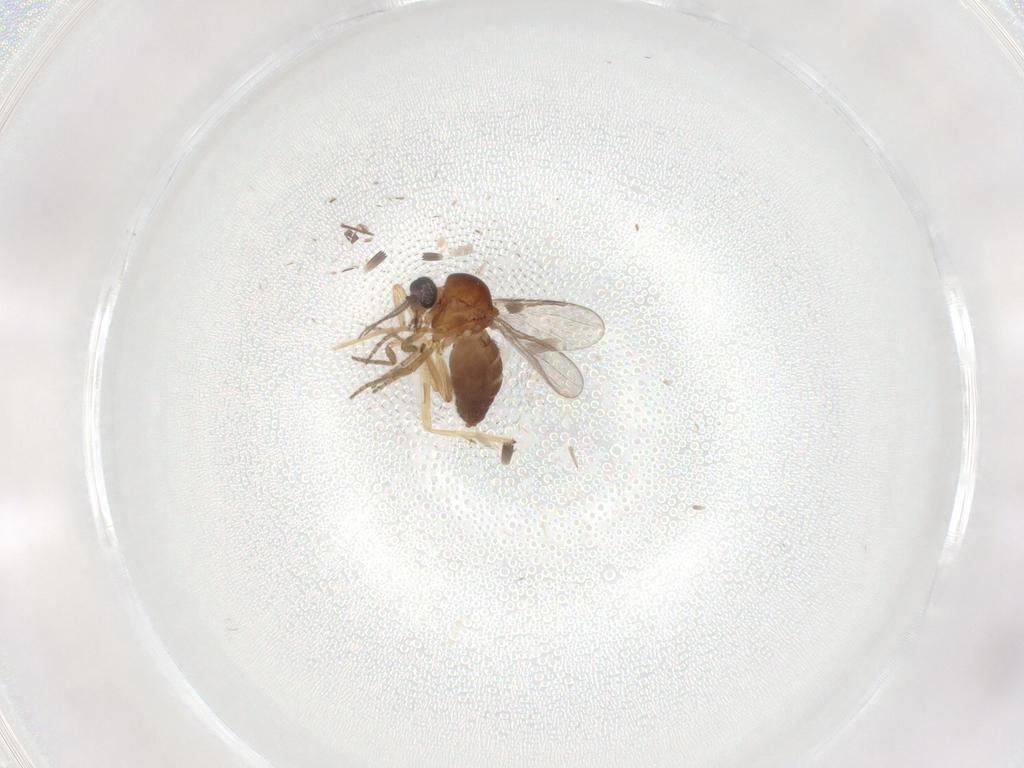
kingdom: Animalia
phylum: Arthropoda
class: Insecta
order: Diptera
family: Ceratopogonidae
